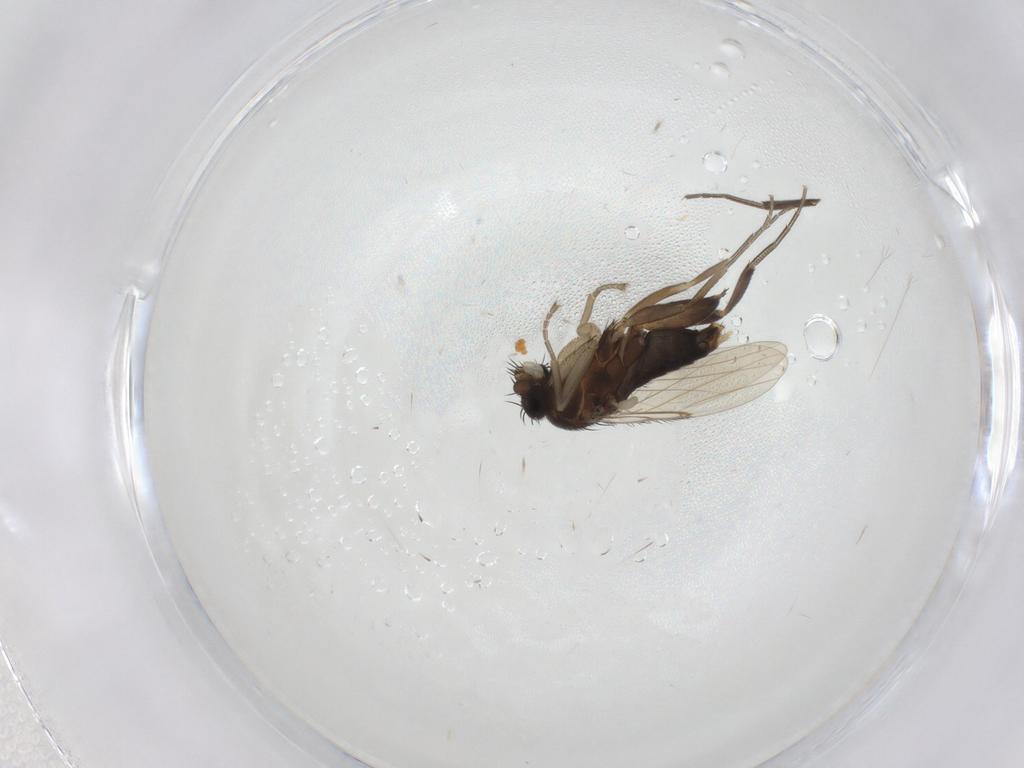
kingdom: Animalia
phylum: Arthropoda
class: Insecta
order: Diptera
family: Phoridae
